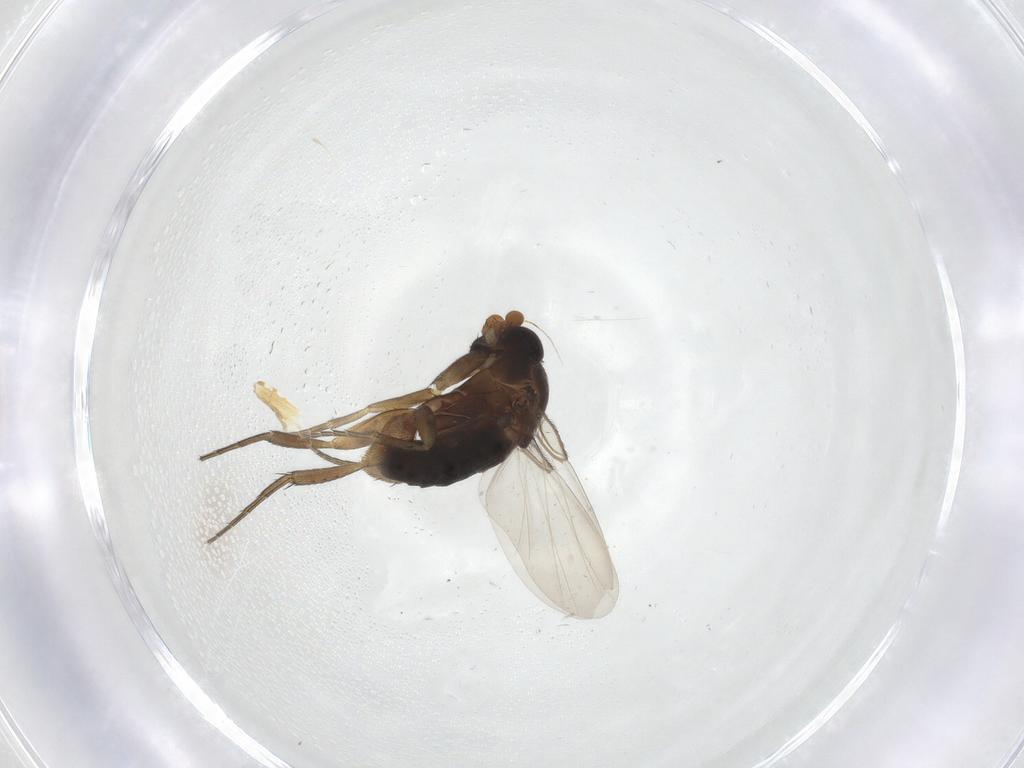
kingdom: Animalia
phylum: Arthropoda
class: Insecta
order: Diptera
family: Phoridae
